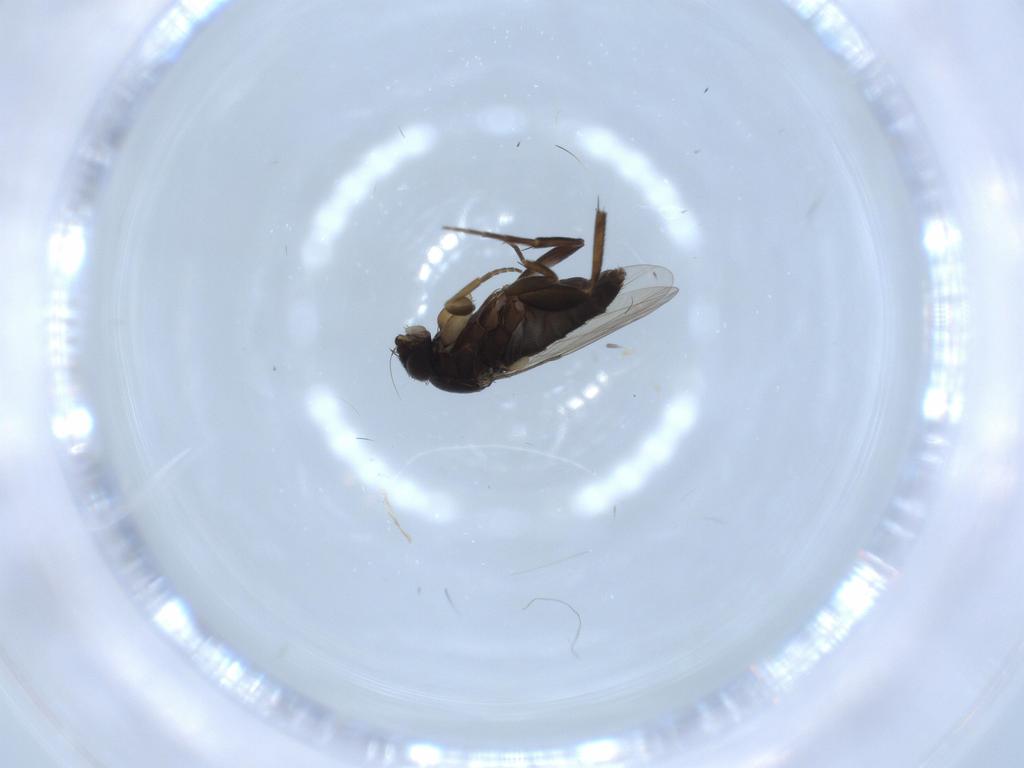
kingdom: Animalia
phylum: Arthropoda
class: Insecta
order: Diptera
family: Phoridae
